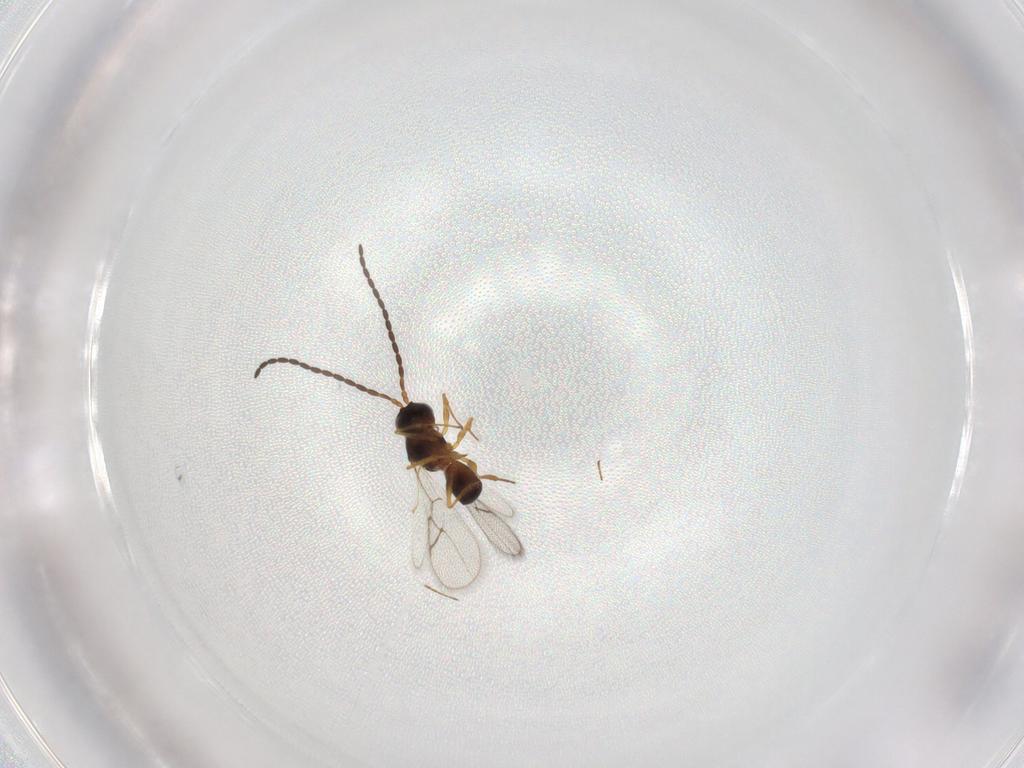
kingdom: Animalia
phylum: Arthropoda
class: Insecta
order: Hymenoptera
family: Figitidae
